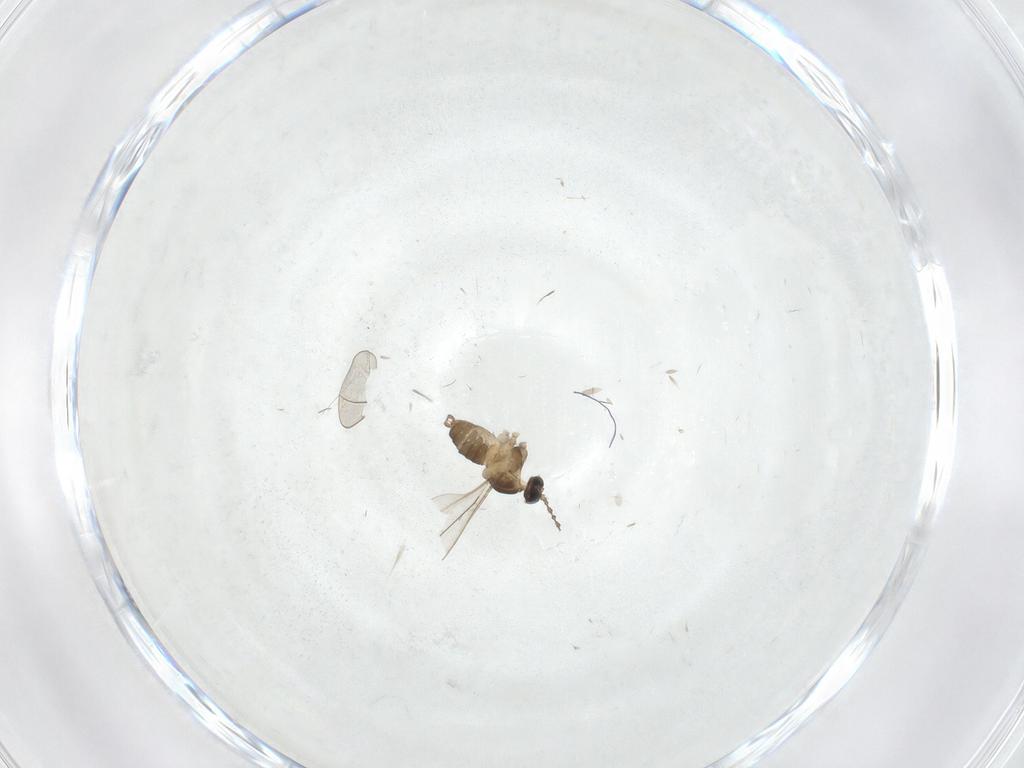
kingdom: Animalia
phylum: Arthropoda
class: Insecta
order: Diptera
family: Cecidomyiidae
